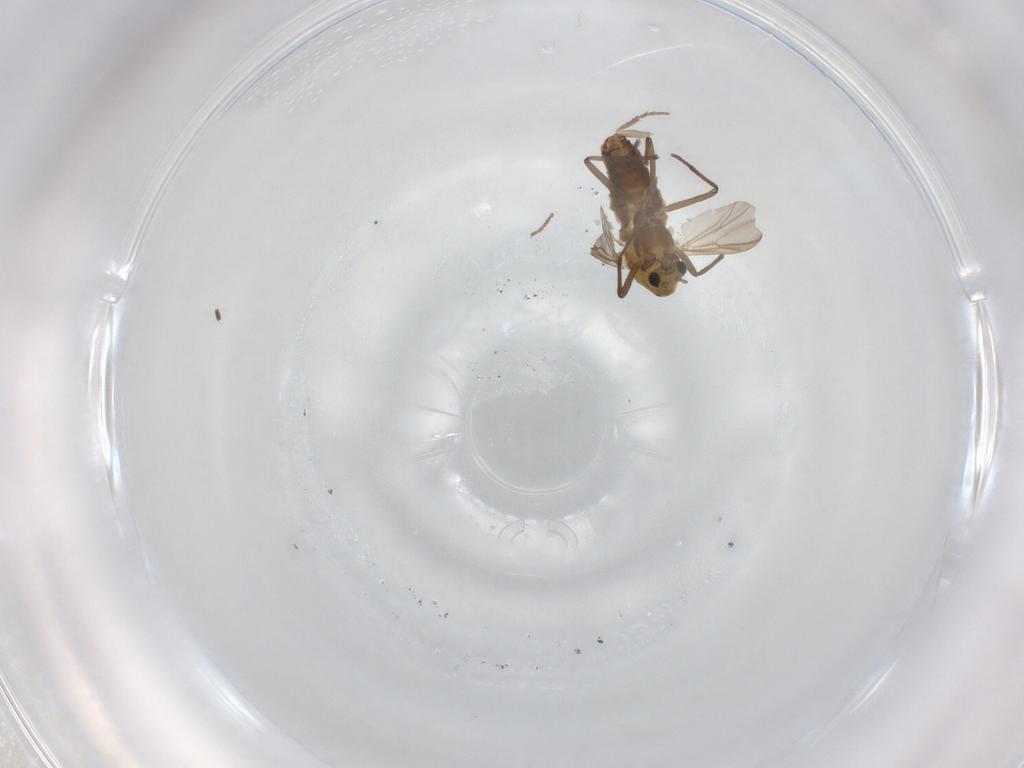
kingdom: Animalia
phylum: Arthropoda
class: Insecta
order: Diptera
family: Chironomidae
